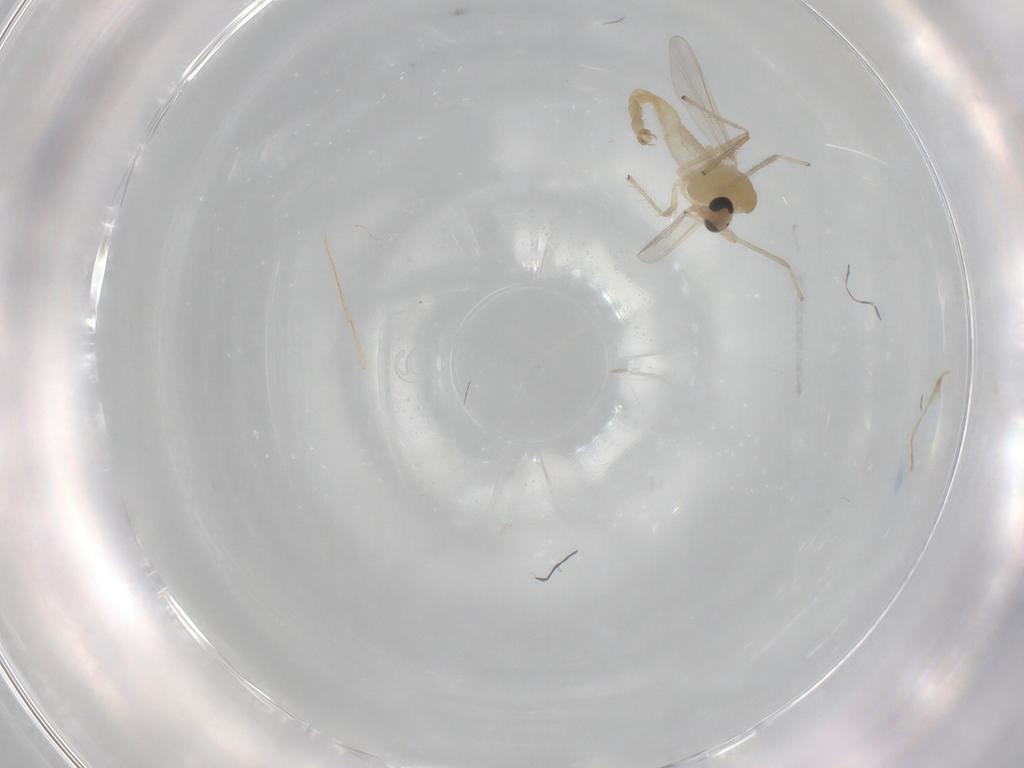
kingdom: Animalia
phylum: Arthropoda
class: Insecta
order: Diptera
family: Chironomidae
